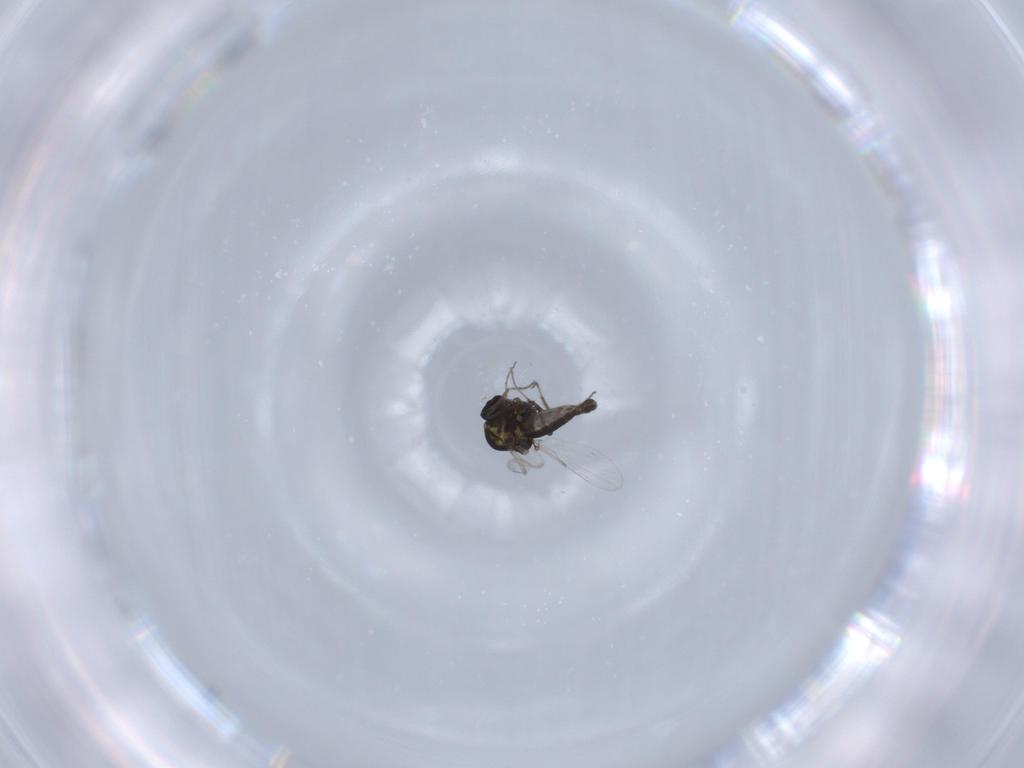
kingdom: Animalia
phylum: Arthropoda
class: Insecta
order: Diptera
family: Ceratopogonidae
